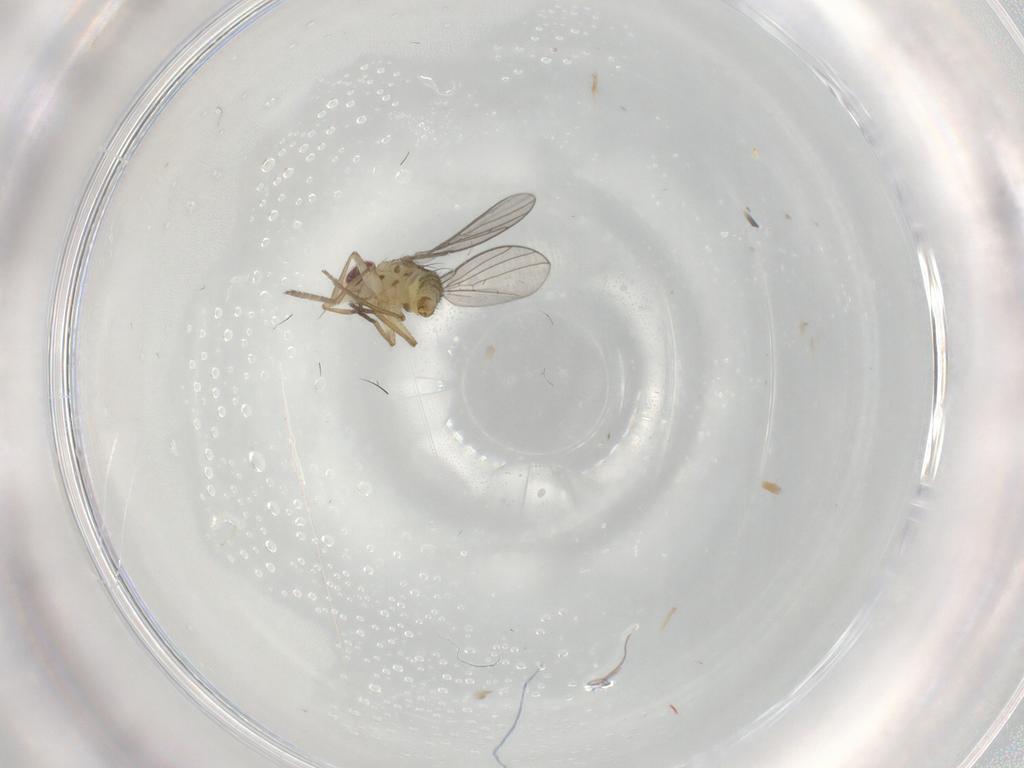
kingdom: Animalia
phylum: Arthropoda
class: Insecta
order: Diptera
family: Agromyzidae
